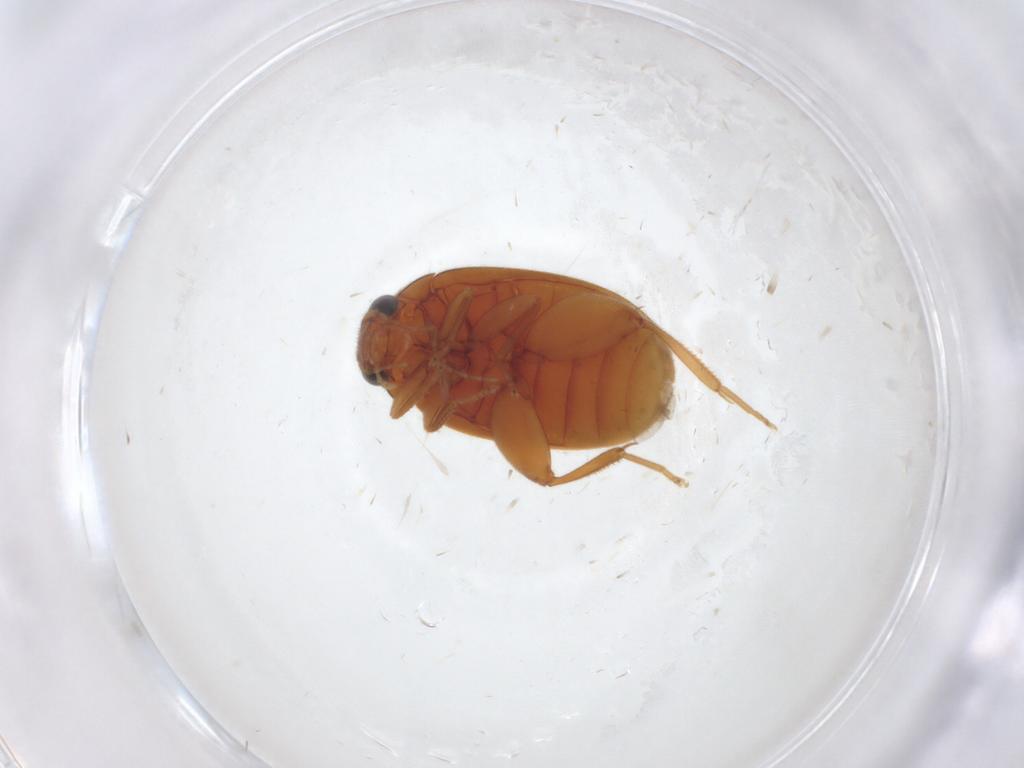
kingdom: Animalia
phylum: Arthropoda
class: Insecta
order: Coleoptera
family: Scirtidae
